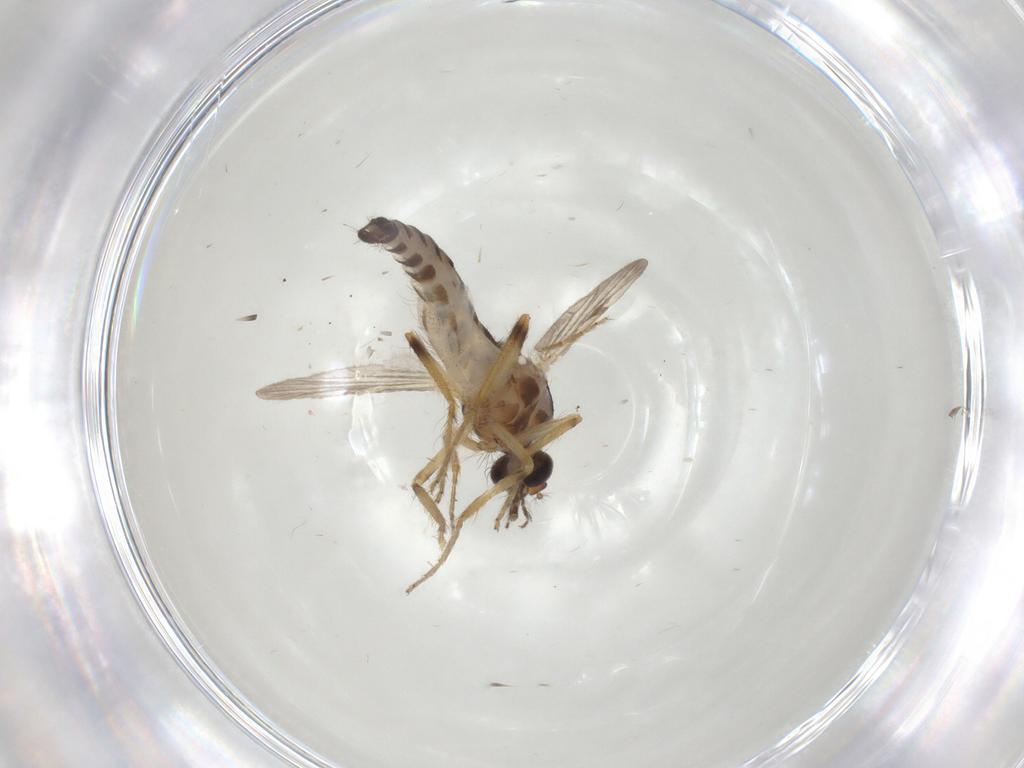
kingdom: Animalia
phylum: Arthropoda
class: Insecta
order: Diptera
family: Ceratopogonidae
